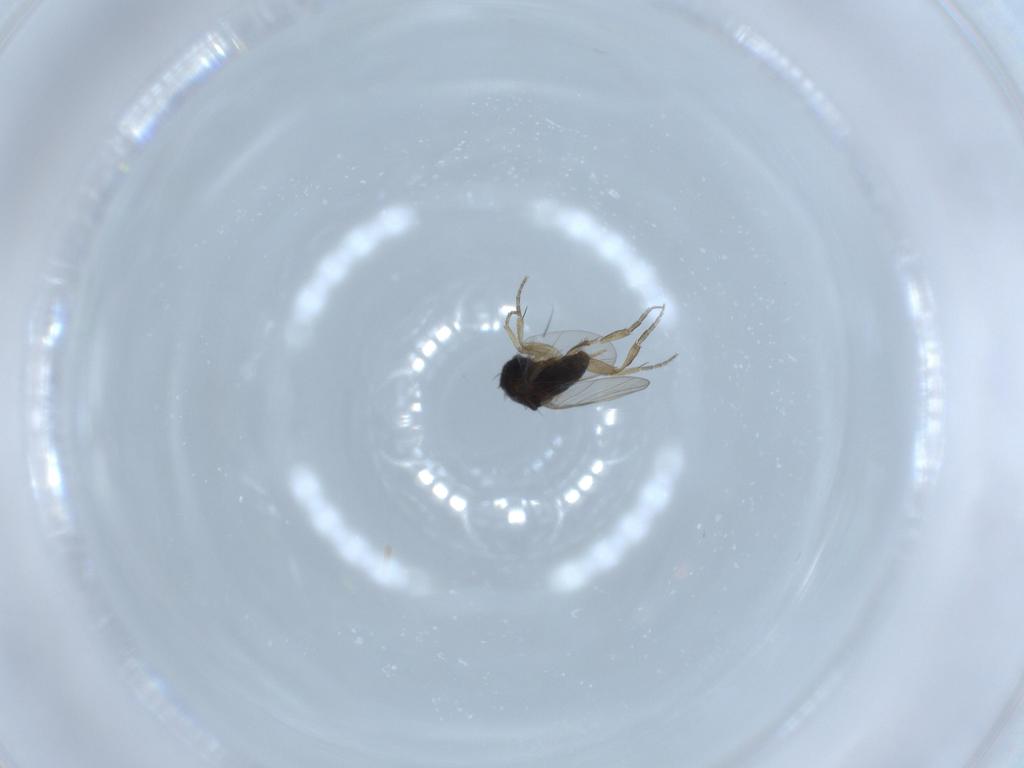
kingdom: Animalia
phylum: Arthropoda
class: Insecta
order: Diptera
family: Phoridae
